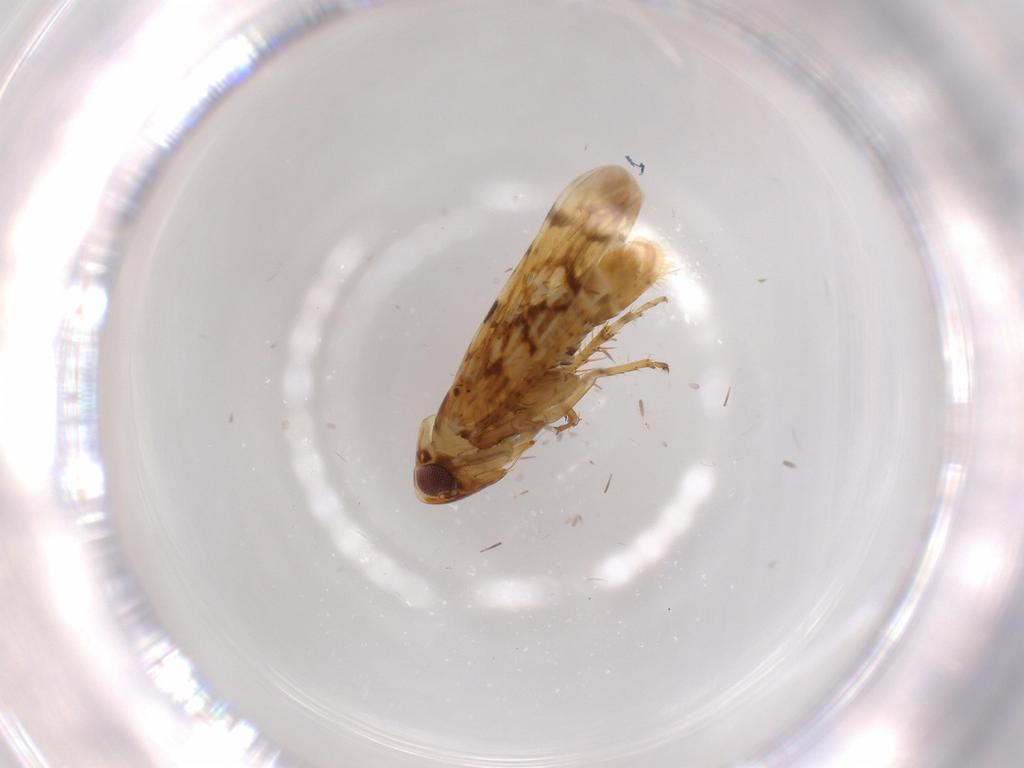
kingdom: Animalia
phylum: Arthropoda
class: Insecta
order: Hemiptera
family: Cicadellidae
